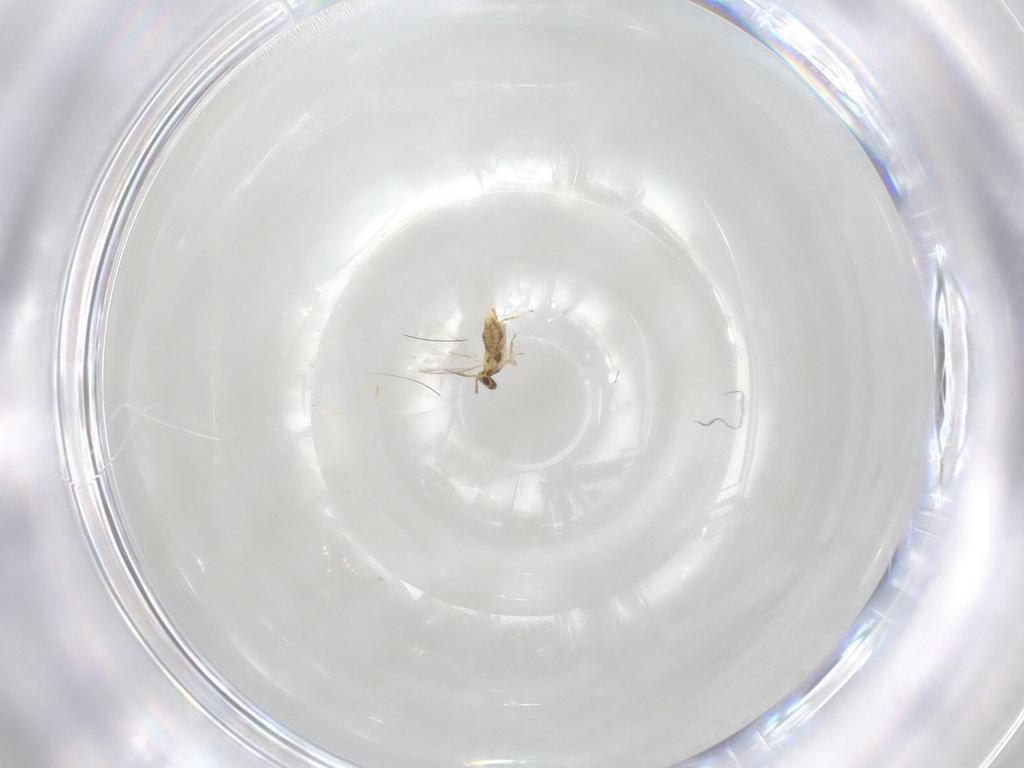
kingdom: Animalia
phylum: Arthropoda
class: Insecta
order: Hymenoptera
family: Aphelinidae
